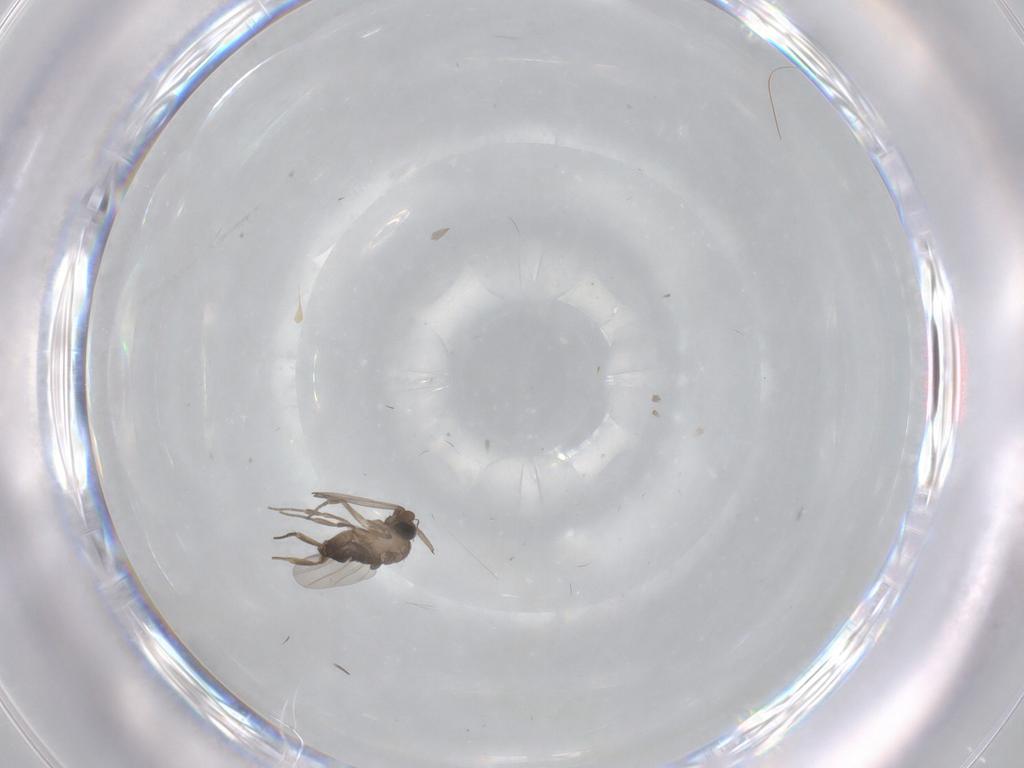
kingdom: Animalia
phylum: Arthropoda
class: Insecta
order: Diptera
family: Sciaridae
